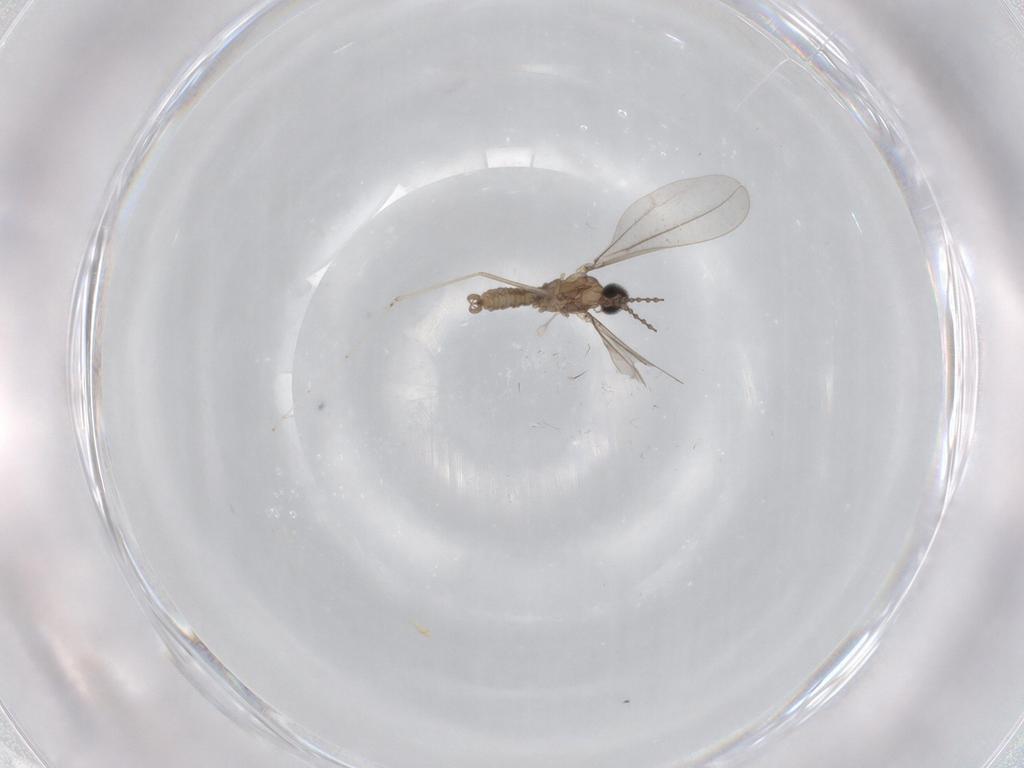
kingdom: Animalia
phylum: Arthropoda
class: Insecta
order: Diptera
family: Cecidomyiidae
